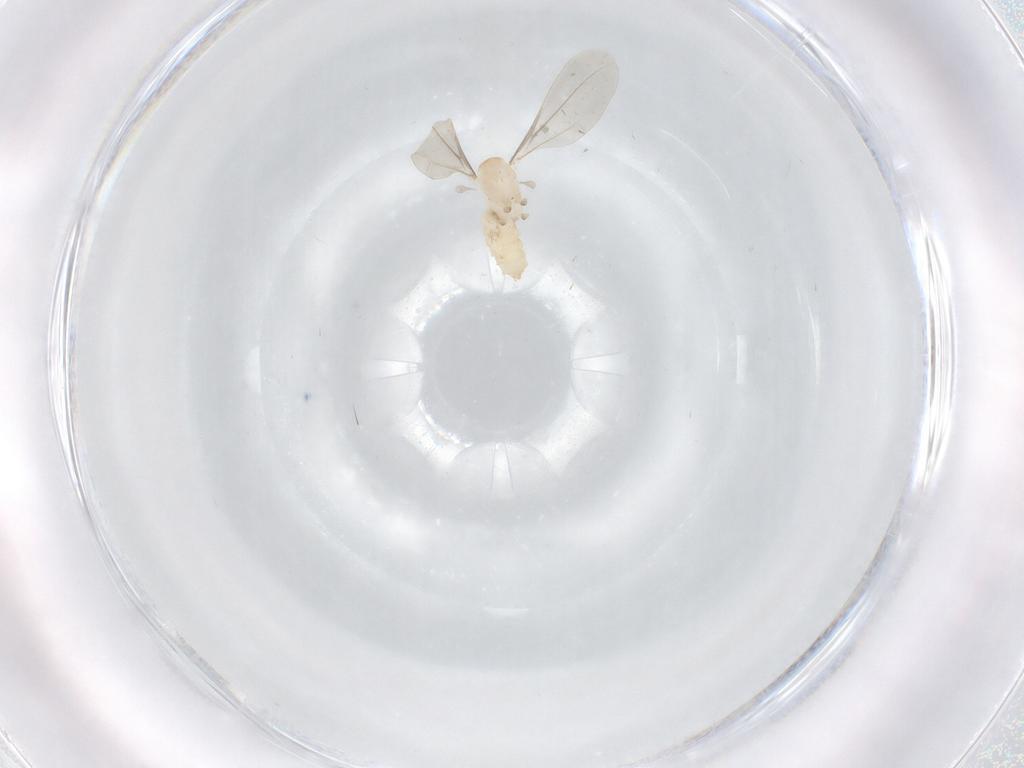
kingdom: Animalia
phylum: Arthropoda
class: Insecta
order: Diptera
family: Cecidomyiidae
